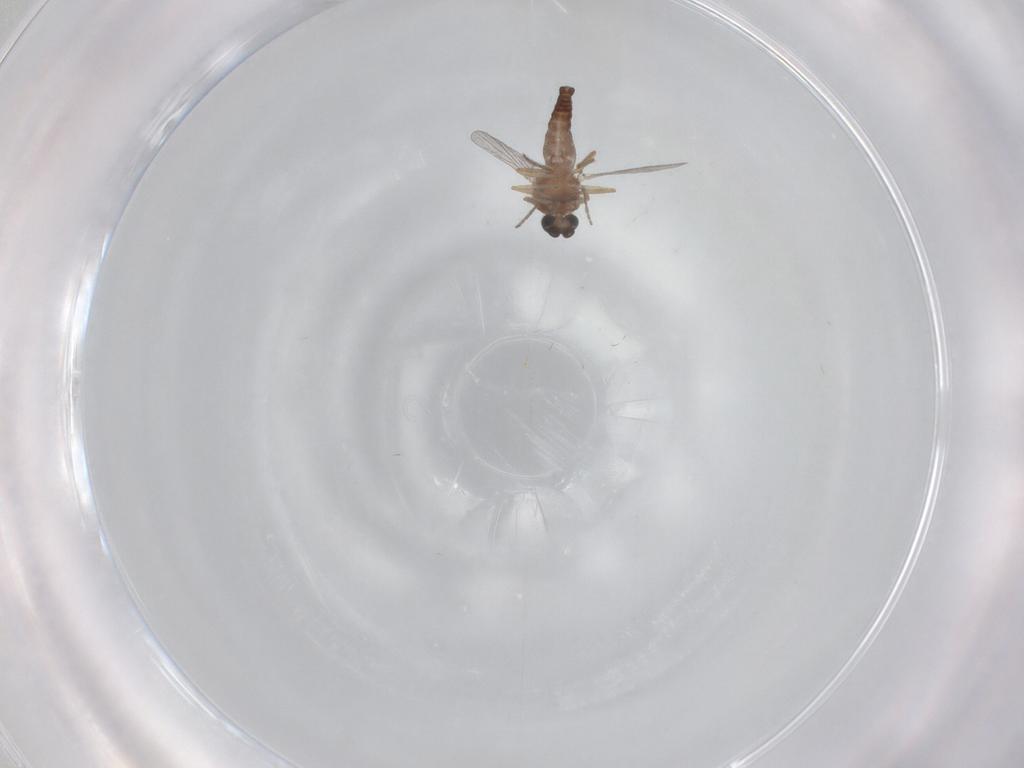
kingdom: Animalia
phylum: Arthropoda
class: Insecta
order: Diptera
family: Ceratopogonidae
